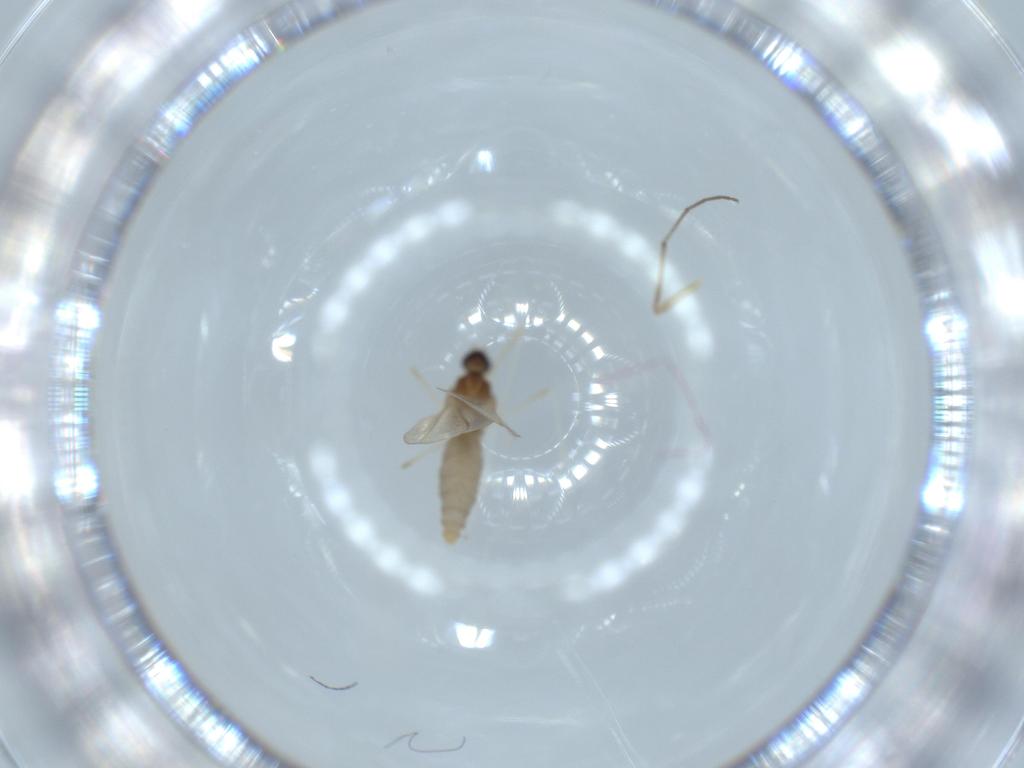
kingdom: Animalia
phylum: Arthropoda
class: Insecta
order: Diptera
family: Cecidomyiidae
